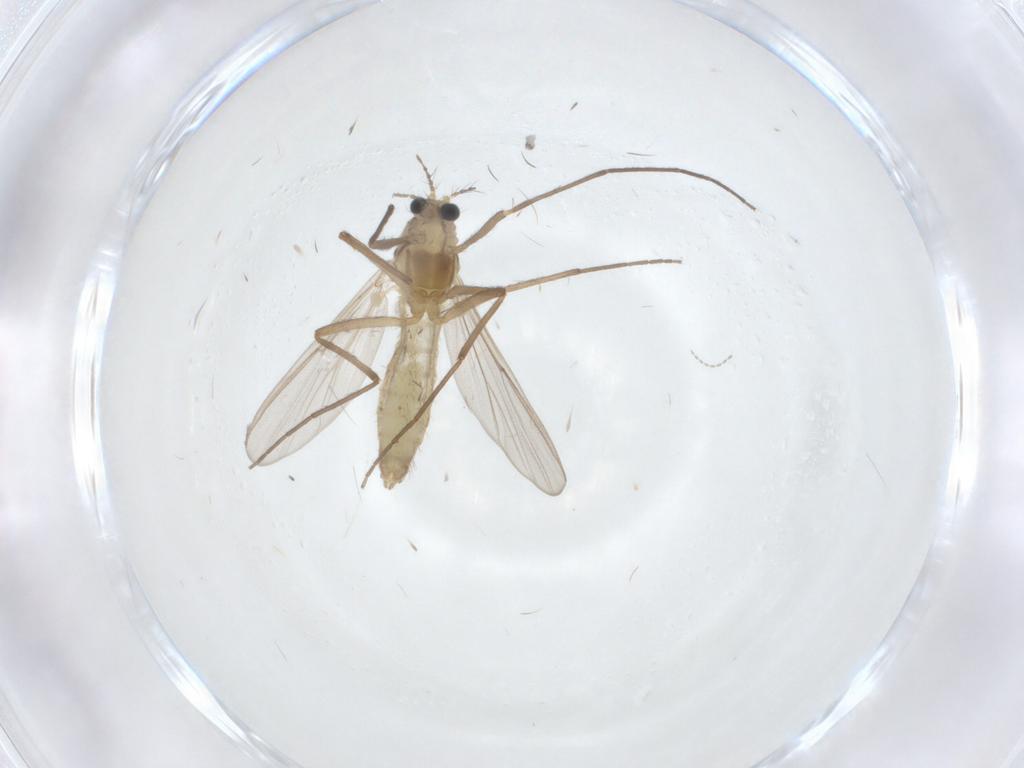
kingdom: Animalia
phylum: Arthropoda
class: Insecta
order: Diptera
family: Chironomidae
